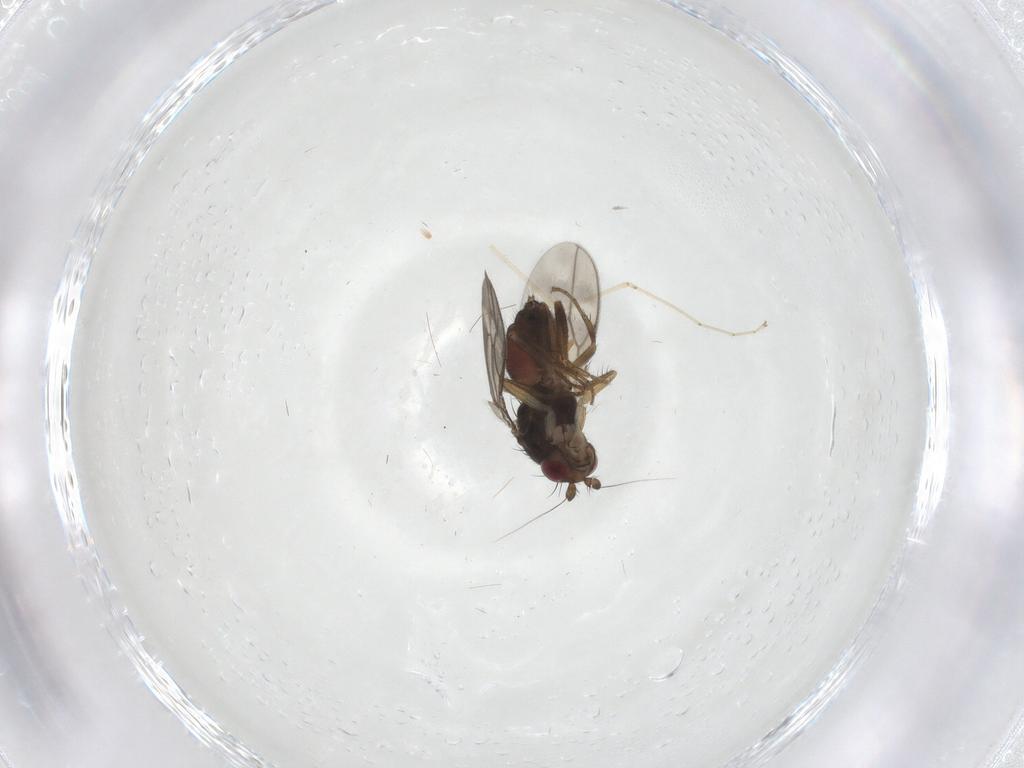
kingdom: Animalia
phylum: Arthropoda
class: Insecta
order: Diptera
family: Sphaeroceridae
